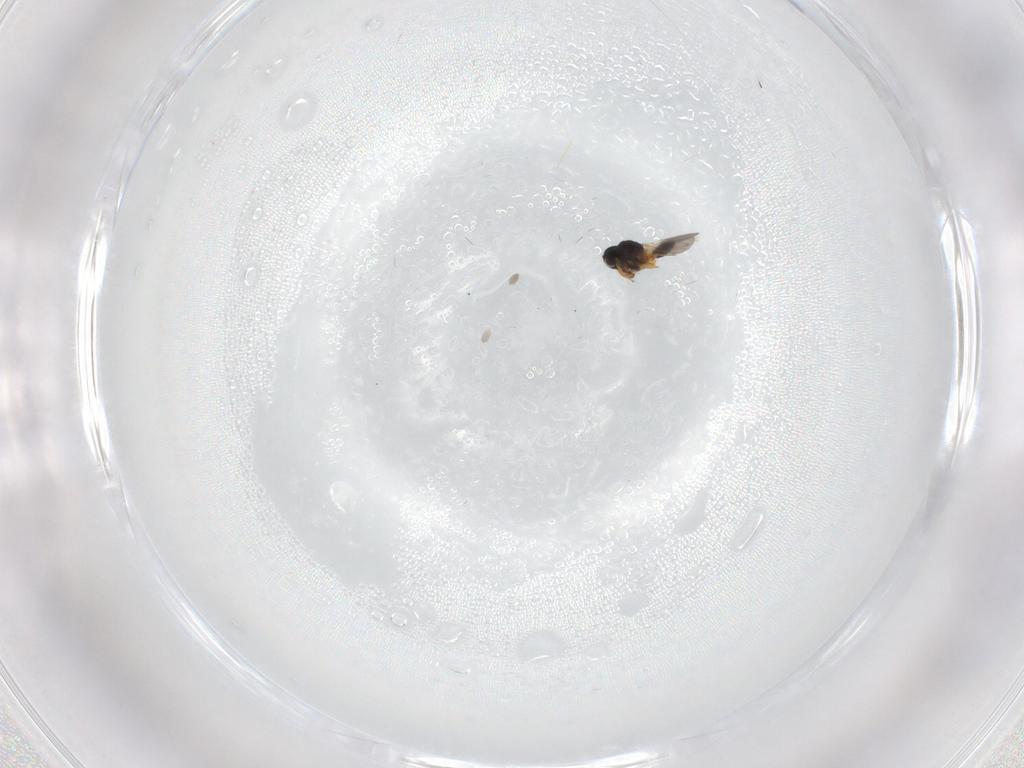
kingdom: Animalia
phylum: Arthropoda
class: Insecta
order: Hymenoptera
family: Platygastridae
